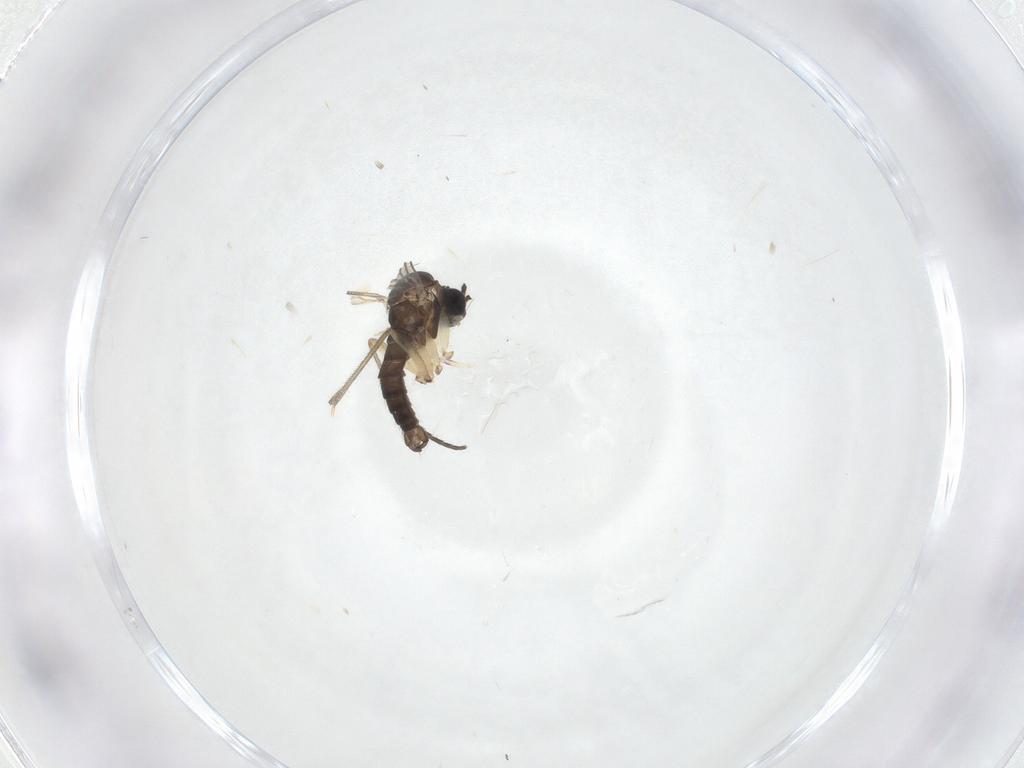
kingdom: Animalia
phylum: Arthropoda
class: Insecta
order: Diptera
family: Sciaridae
